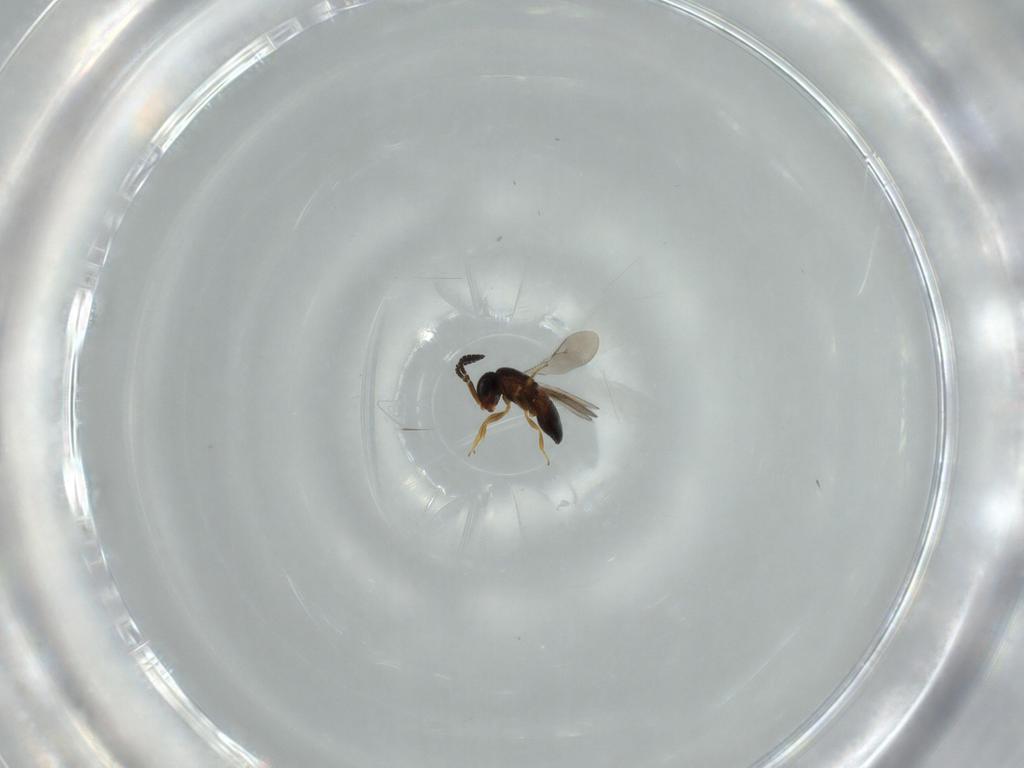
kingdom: Animalia
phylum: Arthropoda
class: Insecta
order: Hymenoptera
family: Scelionidae
